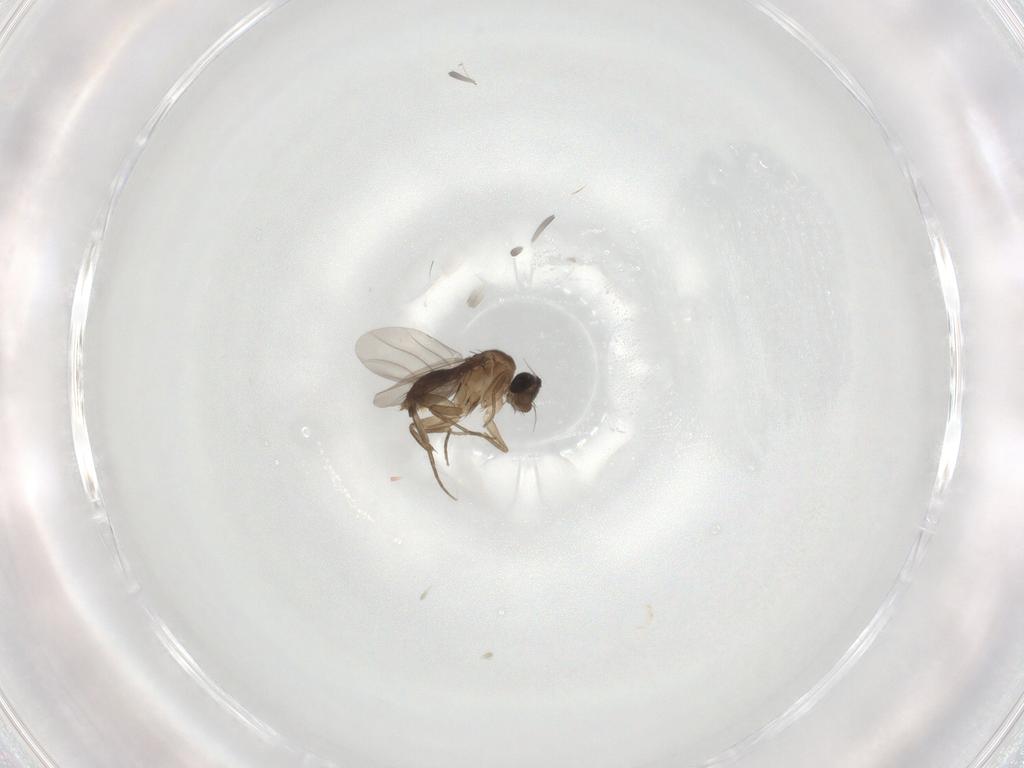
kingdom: Animalia
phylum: Arthropoda
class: Insecta
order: Diptera
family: Phoridae
